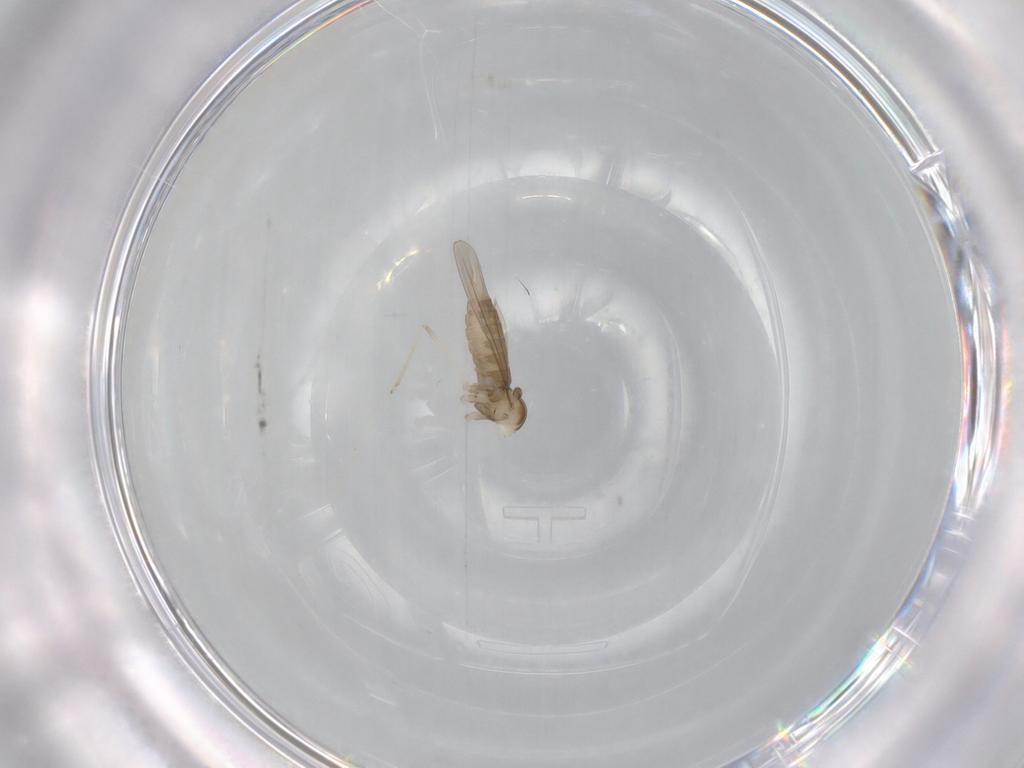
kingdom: Animalia
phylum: Arthropoda
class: Insecta
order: Diptera
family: Cecidomyiidae
